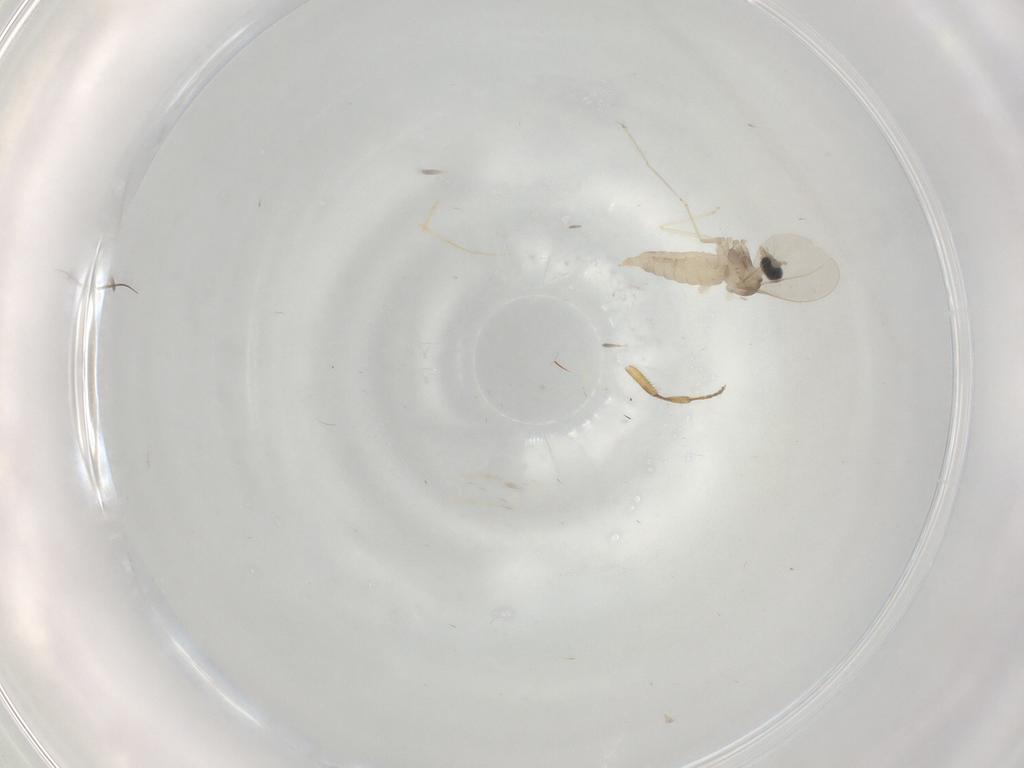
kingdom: Animalia
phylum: Arthropoda
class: Insecta
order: Diptera
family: Cecidomyiidae
